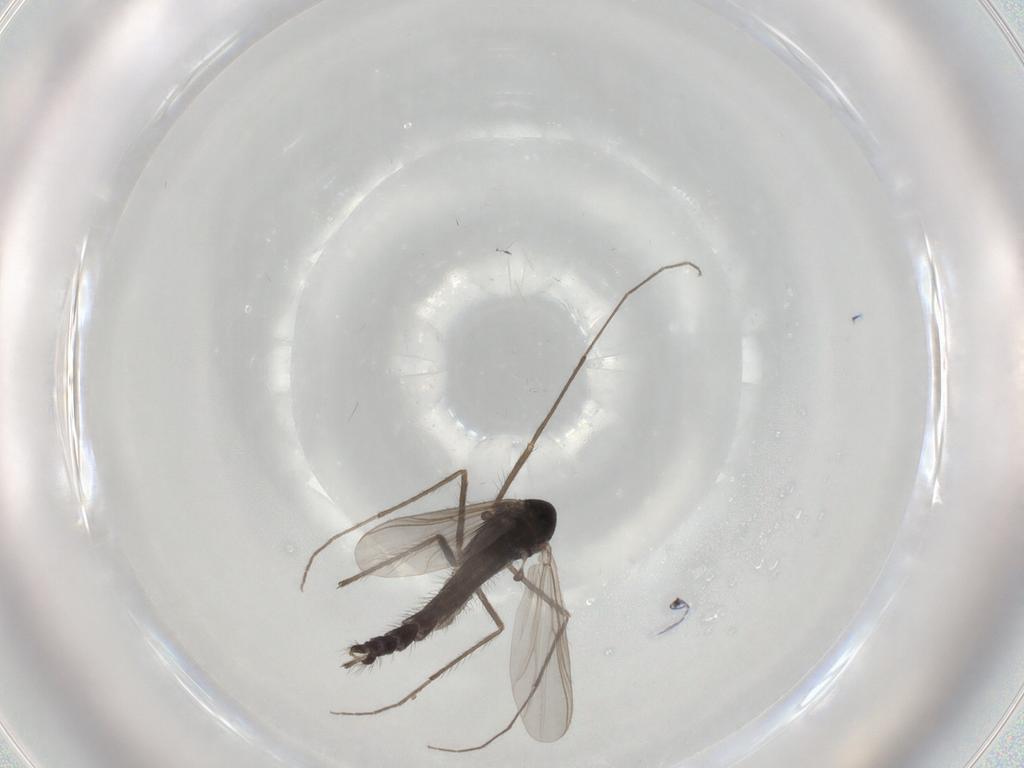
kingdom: Animalia
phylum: Arthropoda
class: Insecta
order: Diptera
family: Chironomidae
